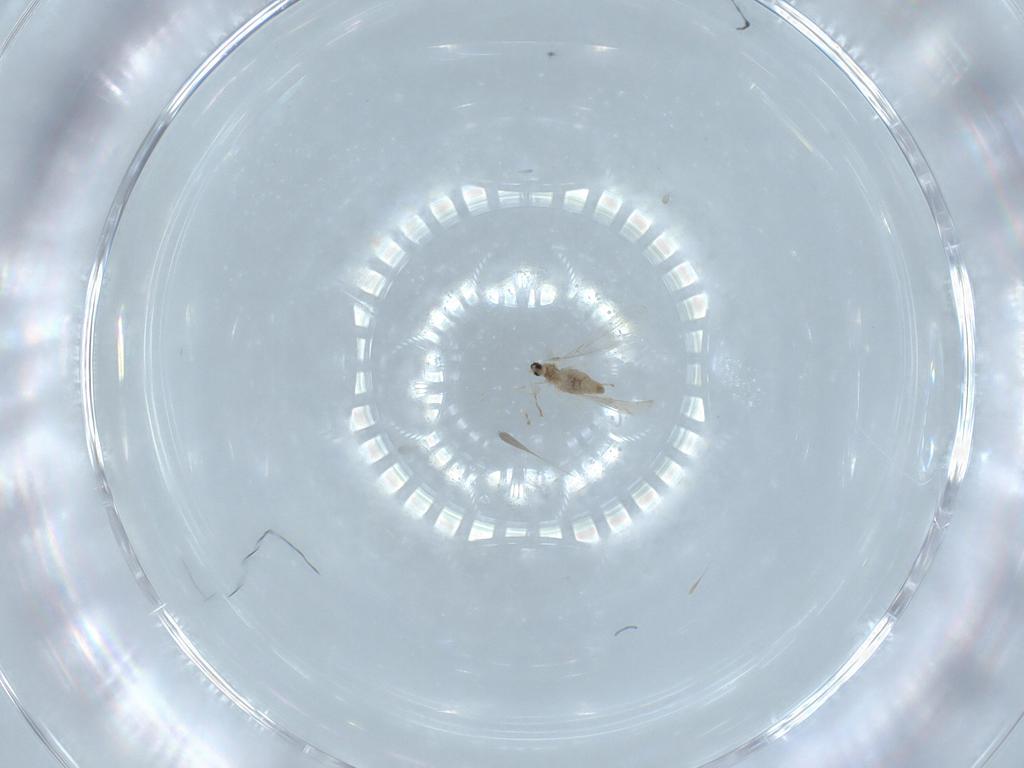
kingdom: Animalia
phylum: Arthropoda
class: Insecta
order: Diptera
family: Cecidomyiidae
